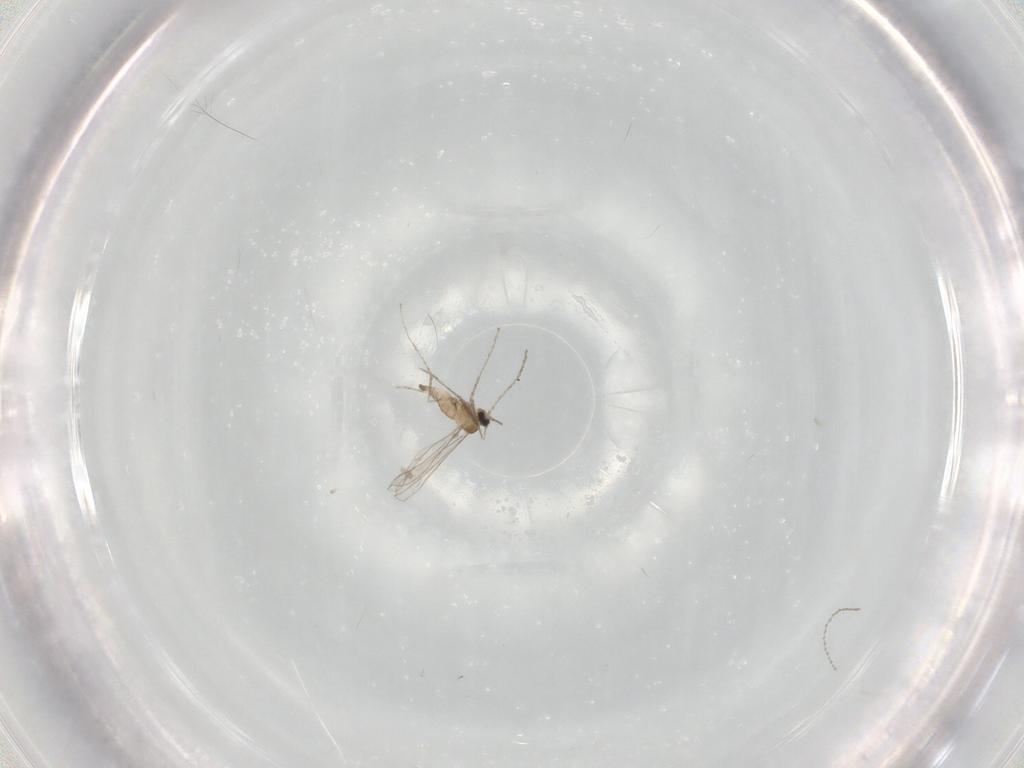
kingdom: Animalia
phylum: Arthropoda
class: Insecta
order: Diptera
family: Cecidomyiidae
